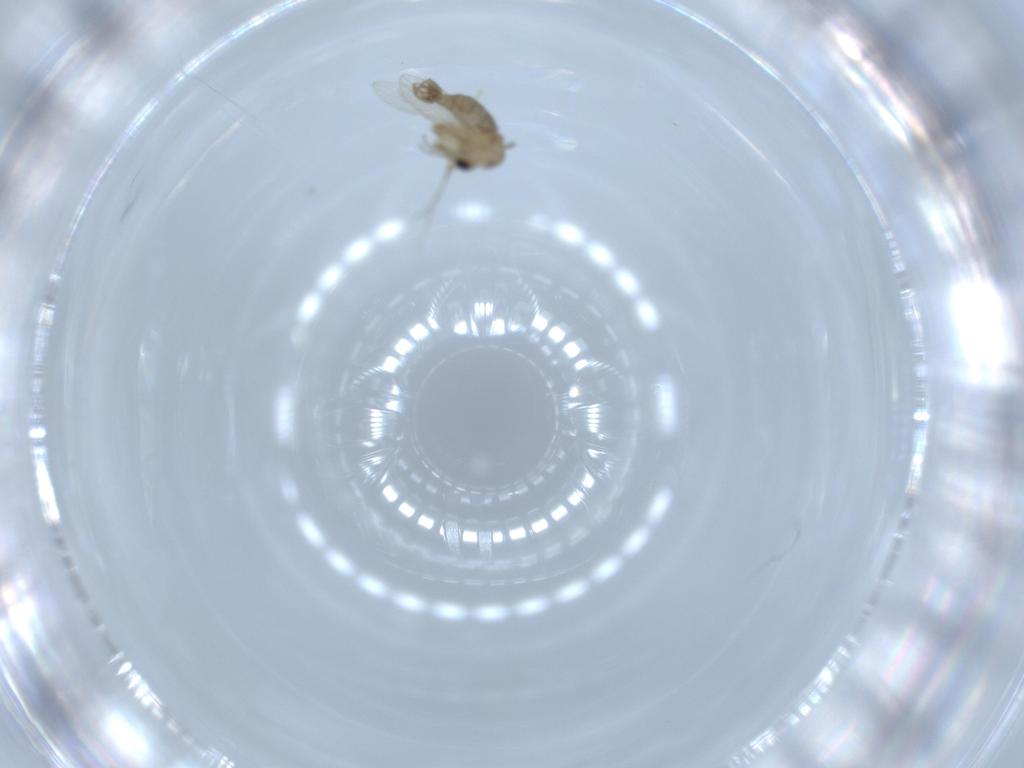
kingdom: Animalia
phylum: Arthropoda
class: Insecta
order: Diptera
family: Psychodidae
